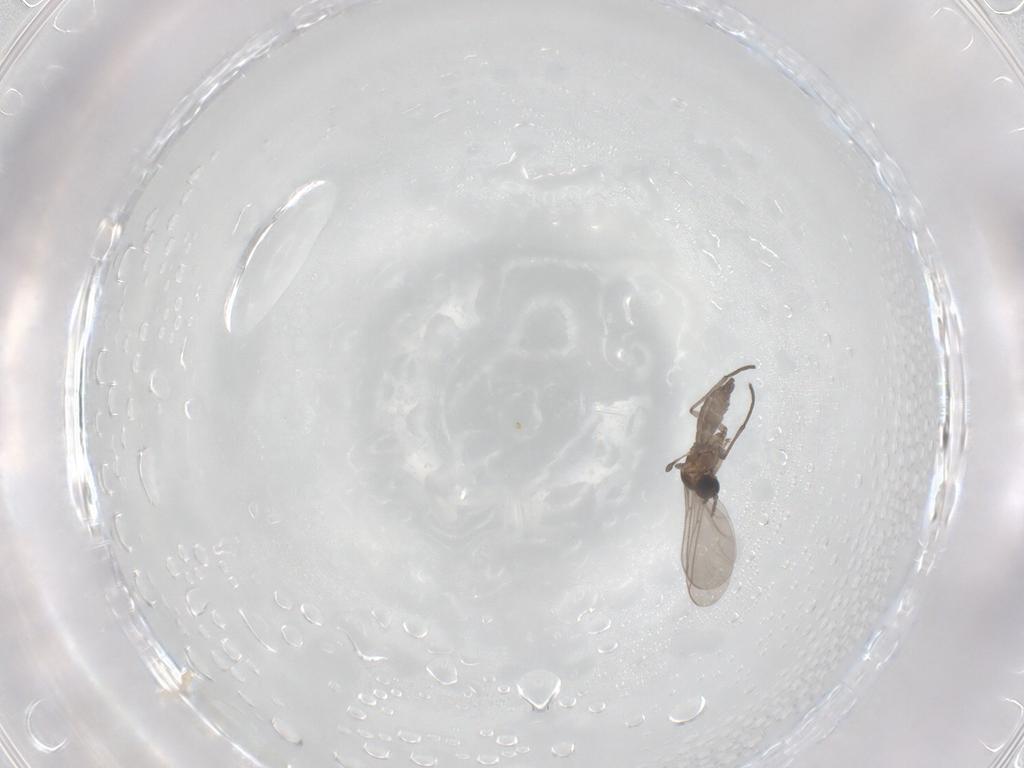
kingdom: Animalia
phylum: Arthropoda
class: Insecta
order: Diptera
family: Sciaridae
